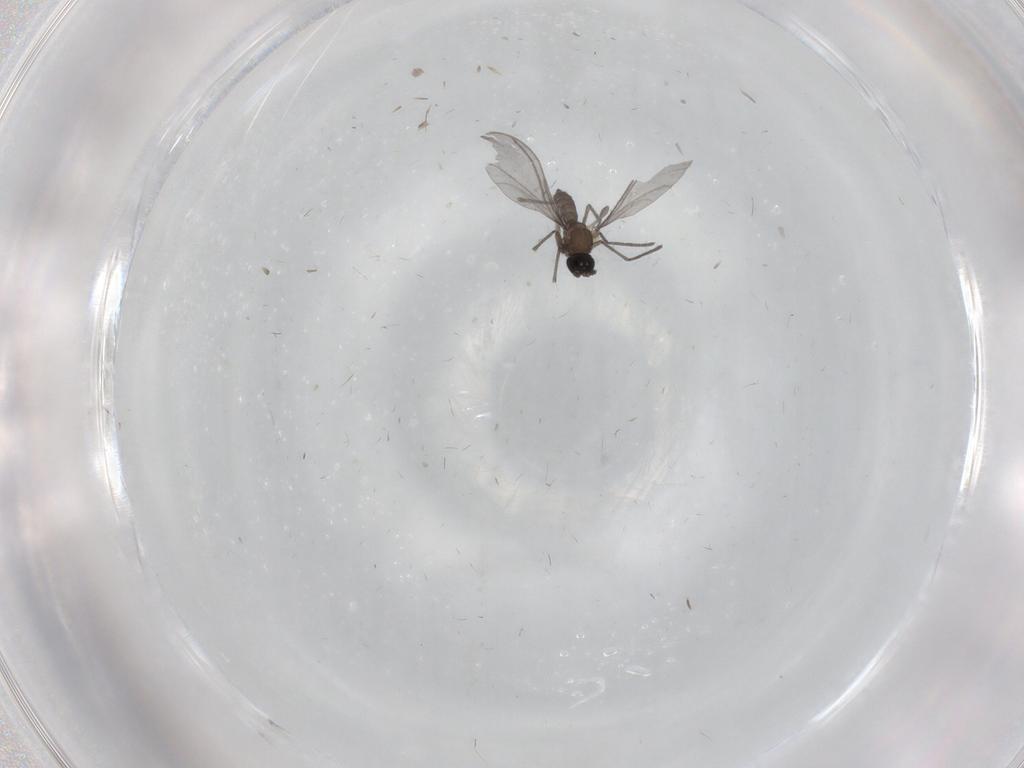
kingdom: Animalia
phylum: Arthropoda
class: Insecta
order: Diptera
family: Sciaridae
